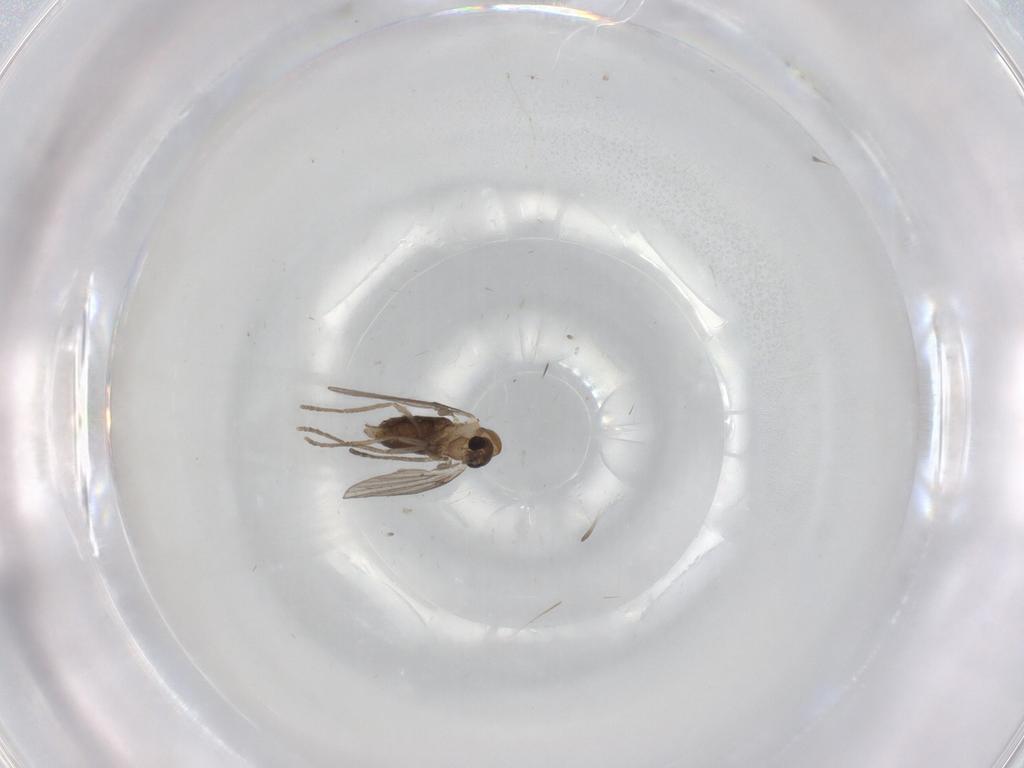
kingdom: Animalia
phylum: Arthropoda
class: Insecta
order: Diptera
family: Psychodidae
